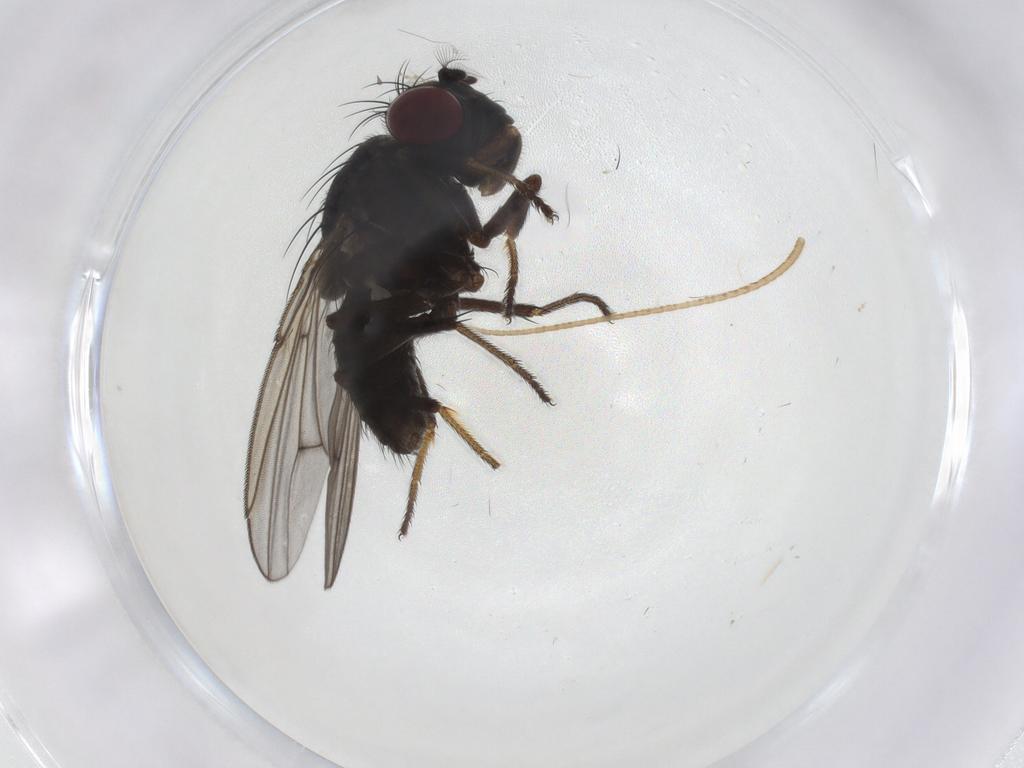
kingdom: Animalia
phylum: Arthropoda
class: Insecta
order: Diptera
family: Ephydridae
